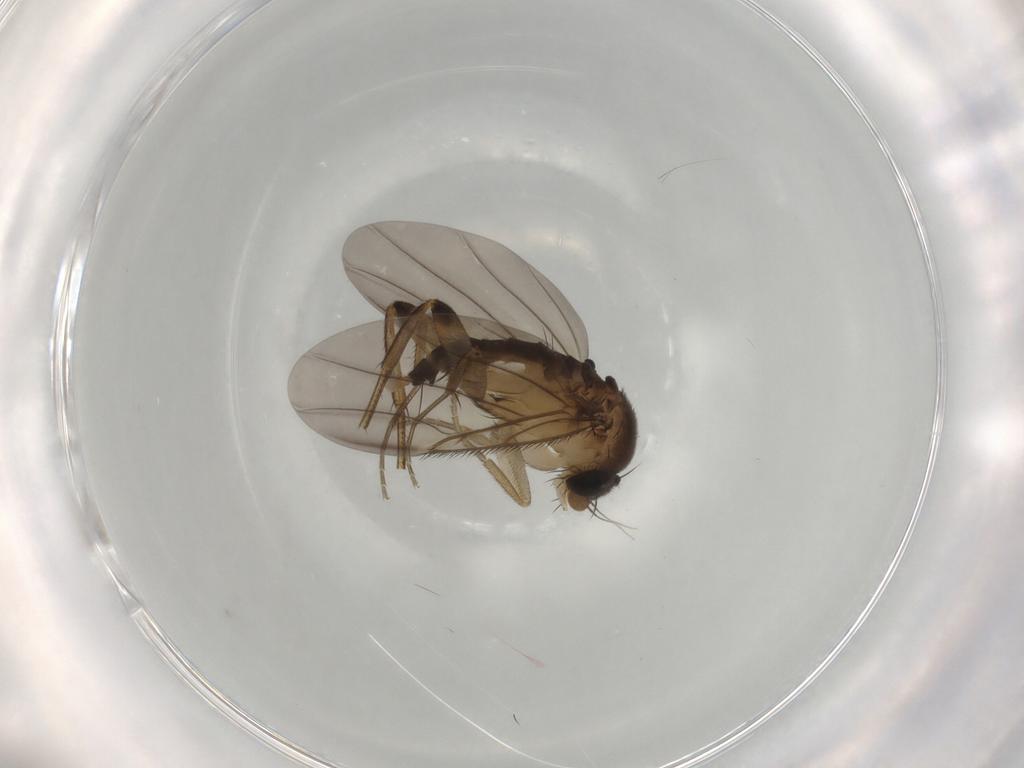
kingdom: Animalia
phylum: Arthropoda
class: Insecta
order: Diptera
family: Phoridae
